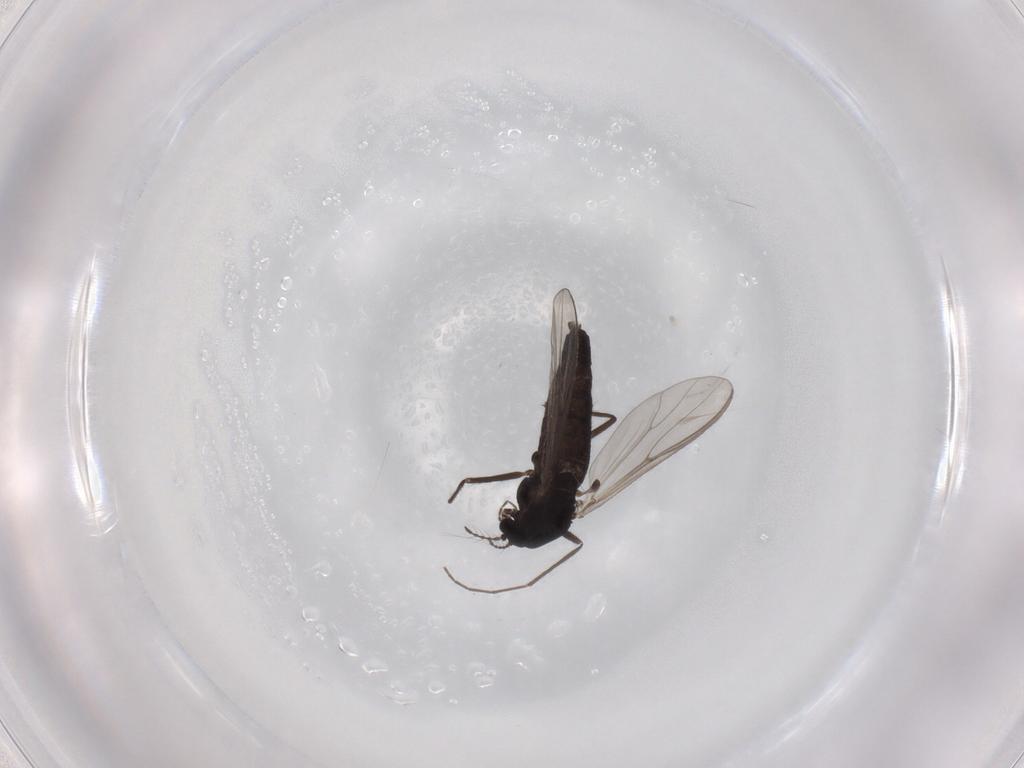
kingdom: Animalia
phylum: Arthropoda
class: Insecta
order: Diptera
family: Chironomidae
